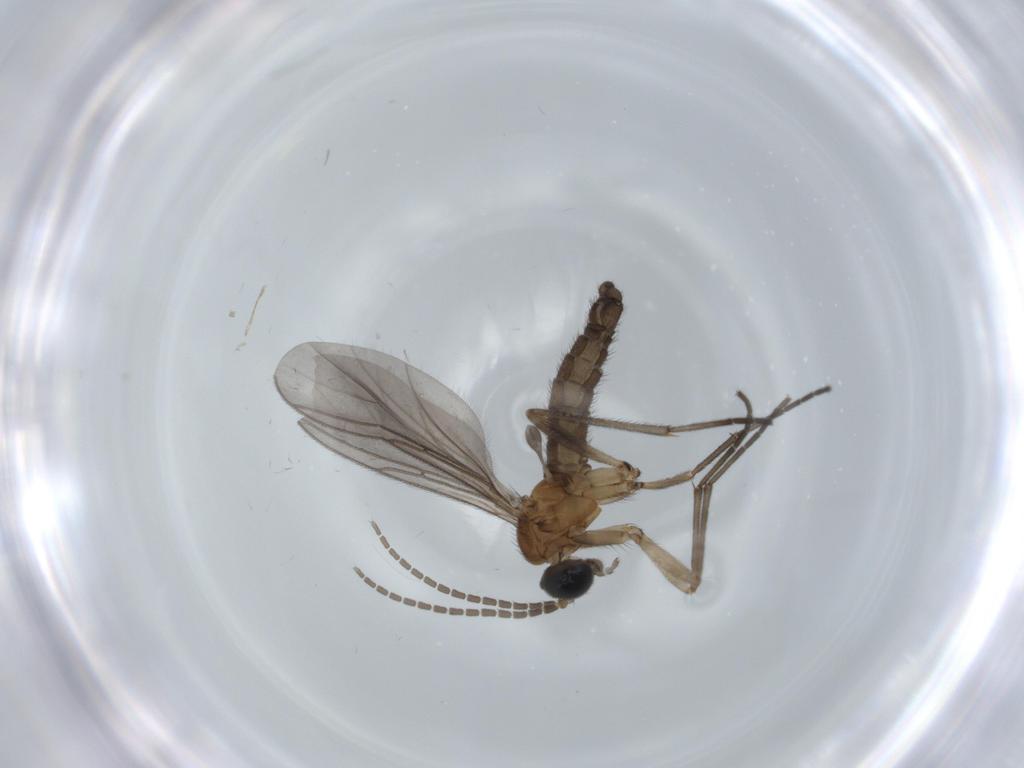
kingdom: Animalia
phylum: Arthropoda
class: Insecta
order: Diptera
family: Sciaridae
